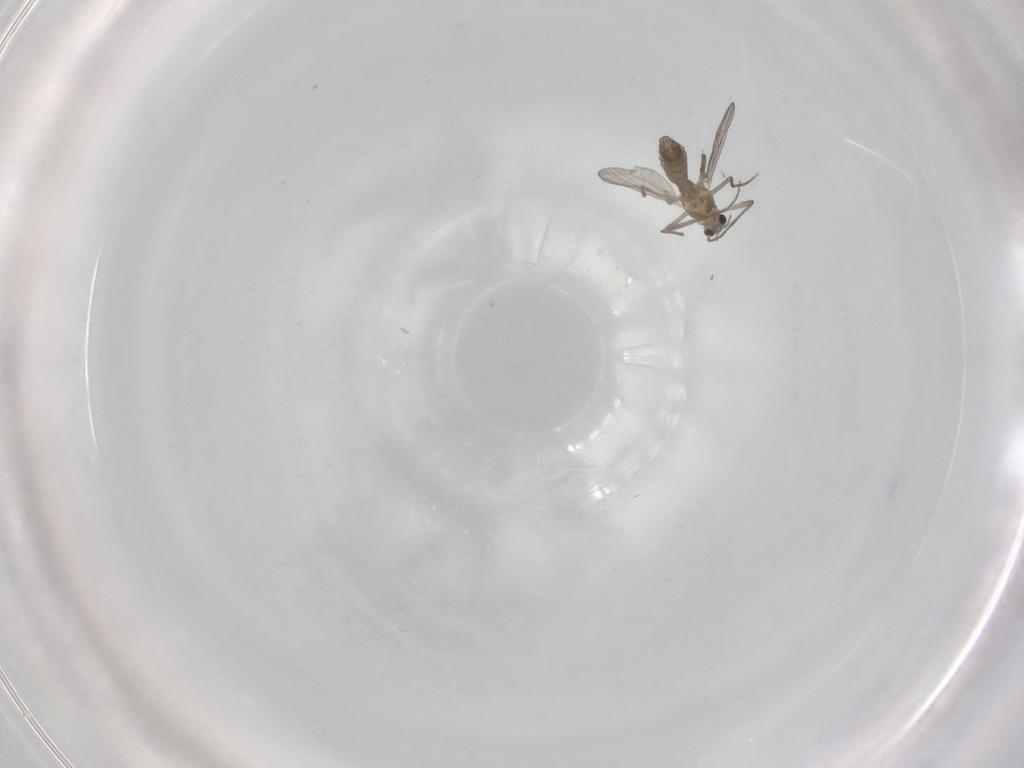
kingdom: Animalia
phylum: Arthropoda
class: Insecta
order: Diptera
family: Chironomidae
